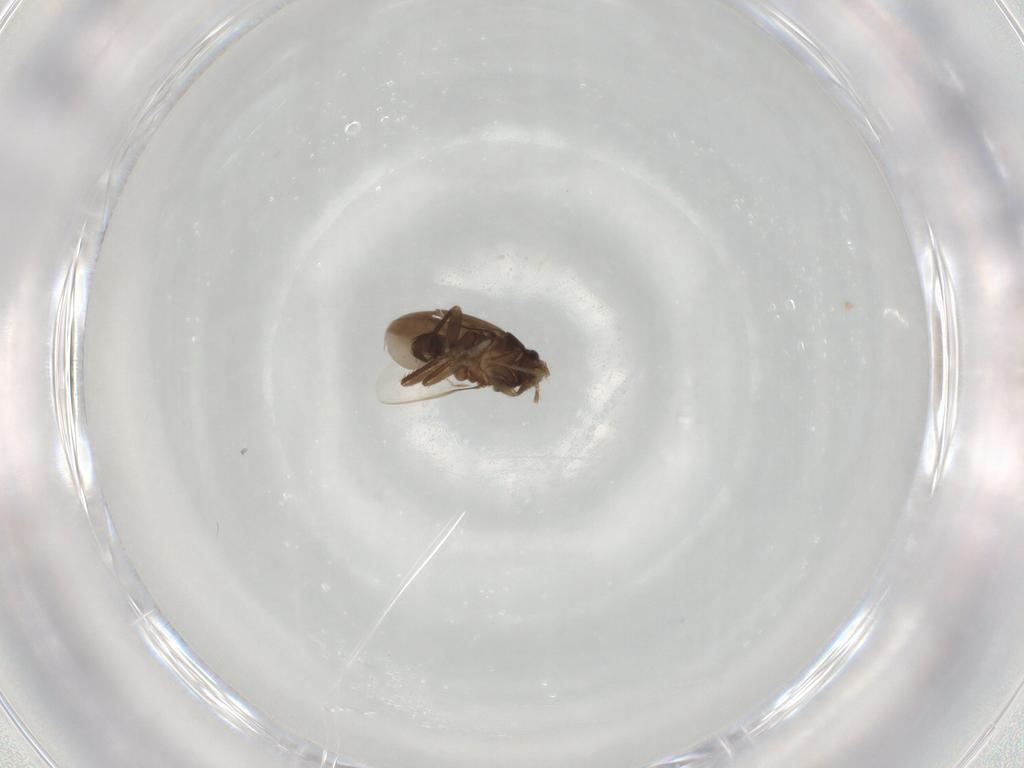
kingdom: Animalia
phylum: Arthropoda
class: Insecta
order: Hemiptera
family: Ceratocombidae
